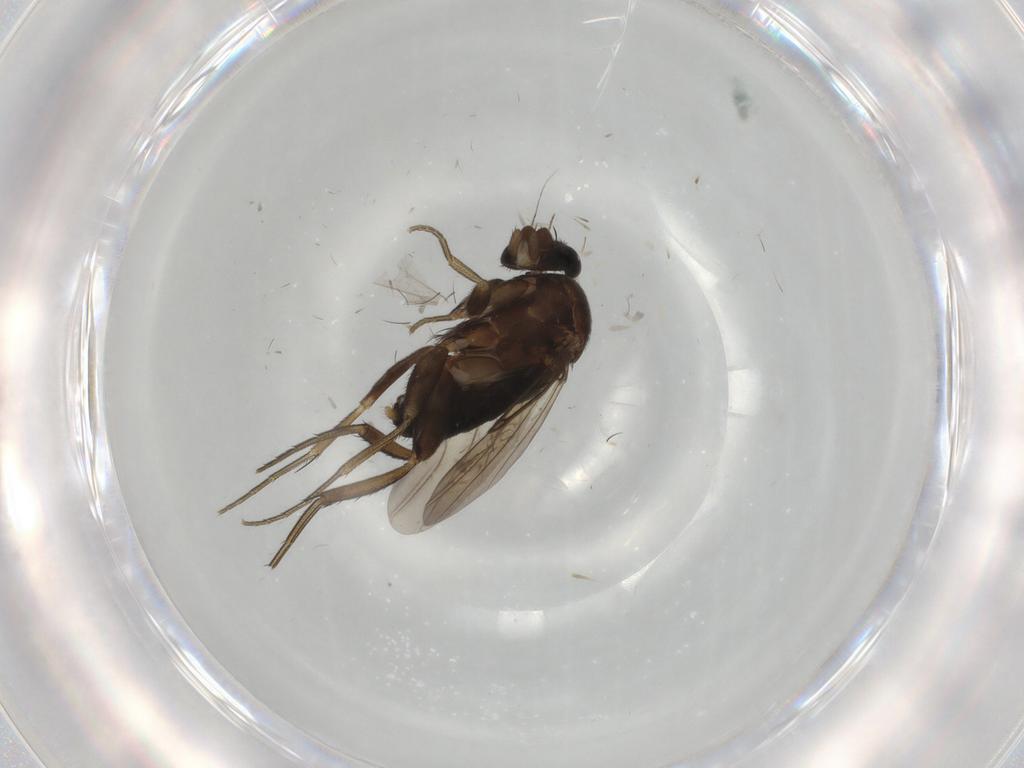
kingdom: Animalia
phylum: Arthropoda
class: Insecta
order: Diptera
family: Phoridae
